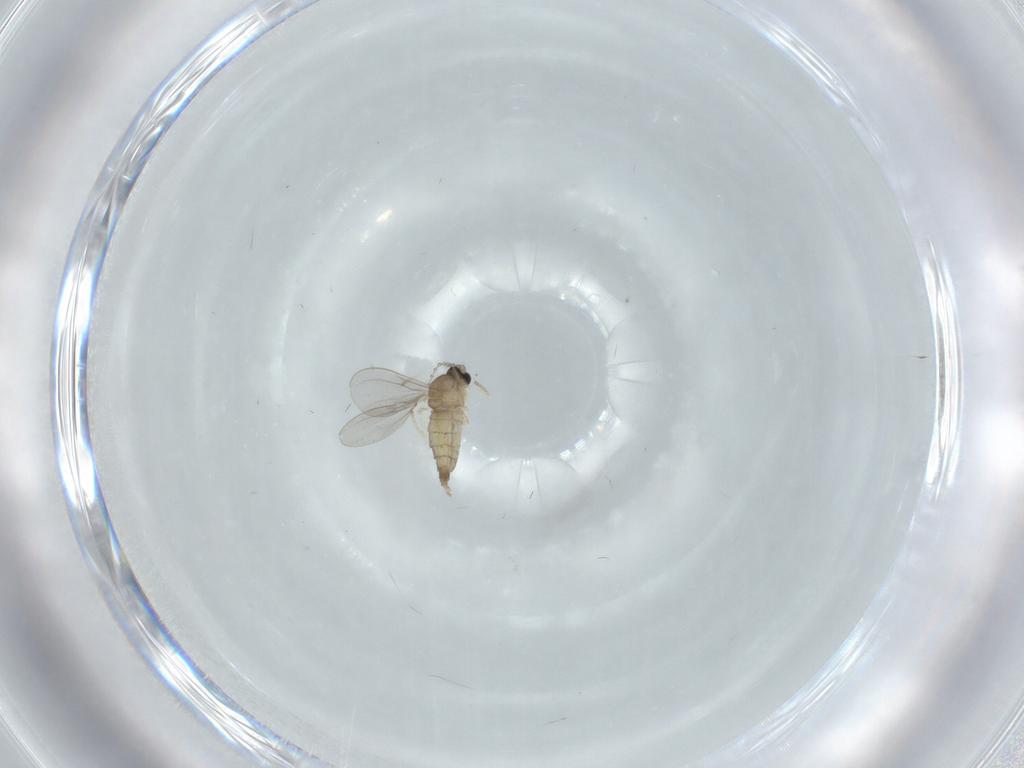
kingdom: Animalia
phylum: Arthropoda
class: Insecta
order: Diptera
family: Cecidomyiidae
